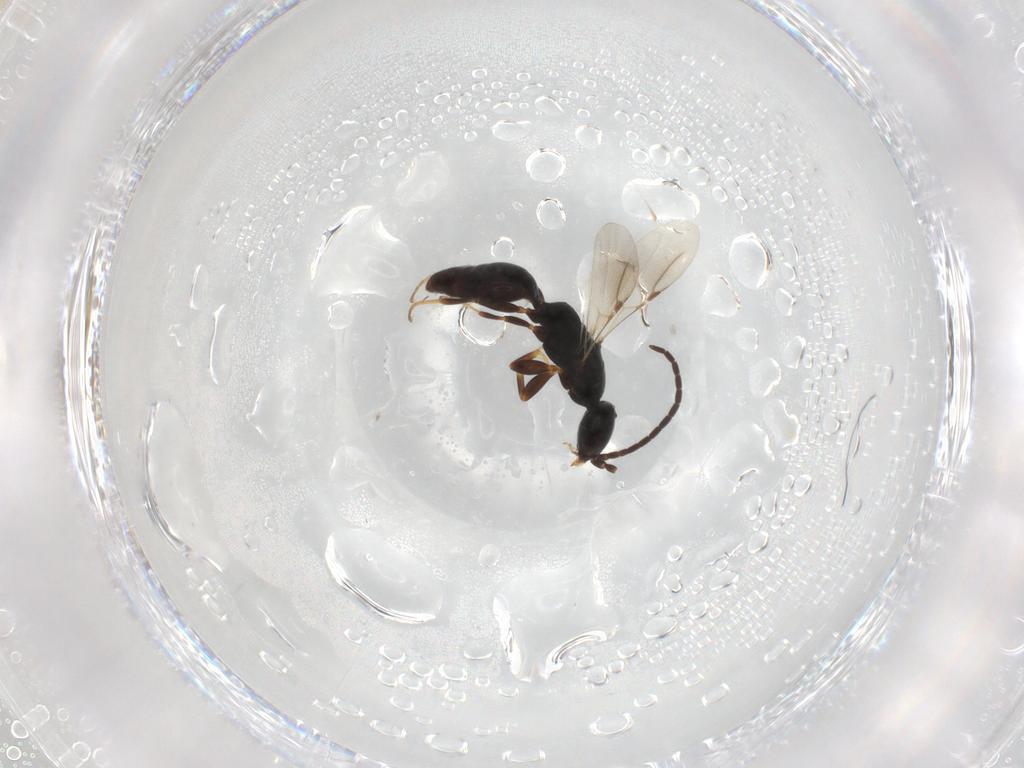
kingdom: Animalia
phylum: Arthropoda
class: Insecta
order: Hymenoptera
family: Bethylidae
